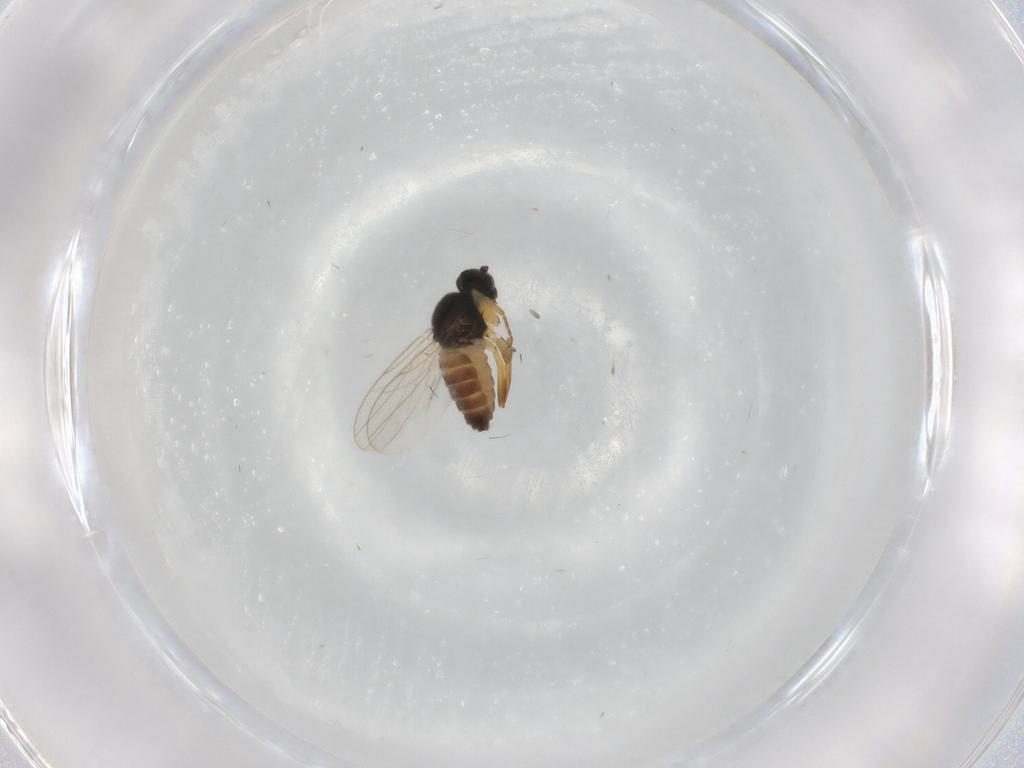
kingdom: Animalia
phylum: Arthropoda
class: Insecta
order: Diptera
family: Hybotidae
